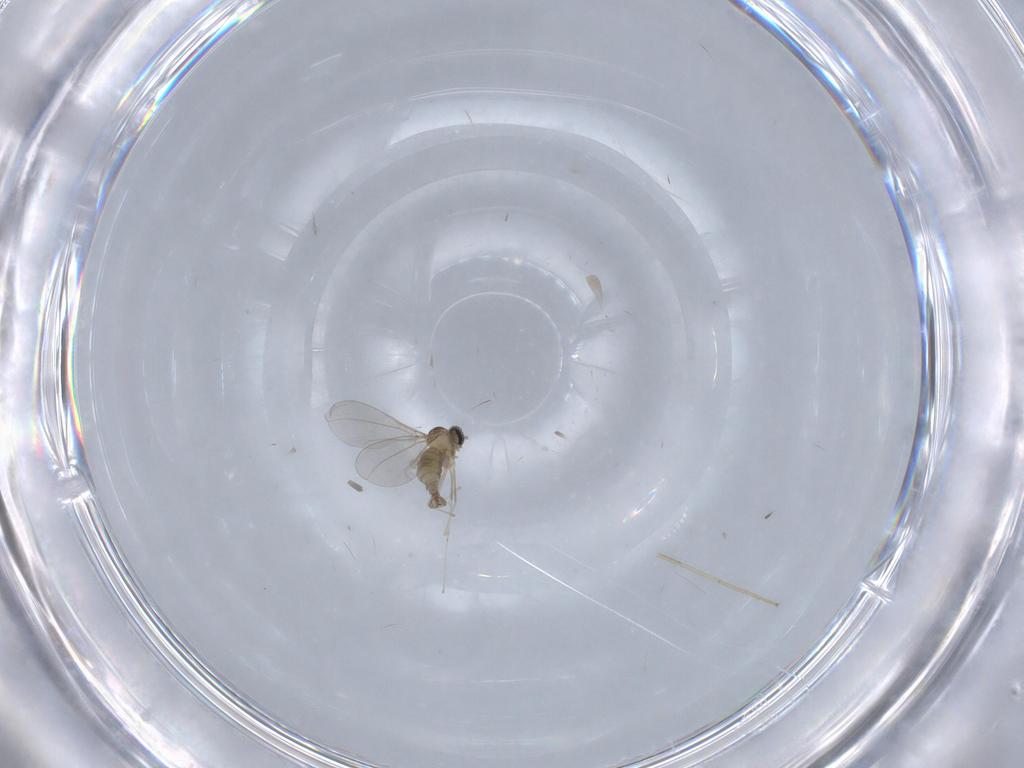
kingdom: Animalia
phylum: Arthropoda
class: Insecta
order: Diptera
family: Cecidomyiidae
